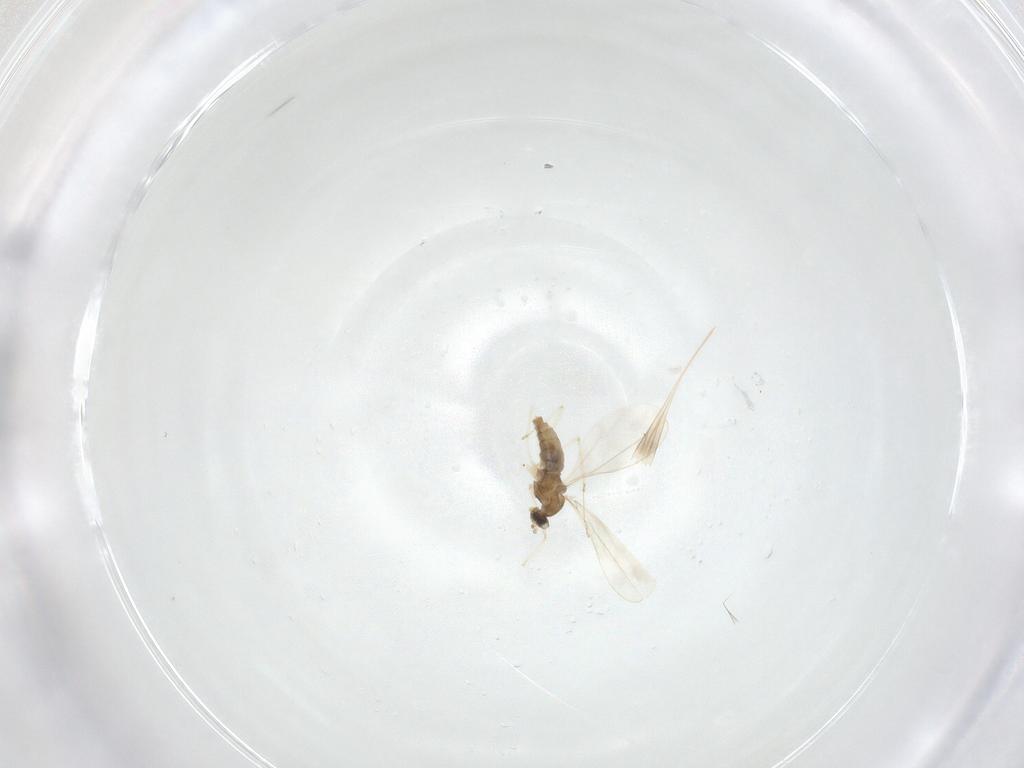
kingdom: Animalia
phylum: Arthropoda
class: Insecta
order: Diptera
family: Cecidomyiidae
